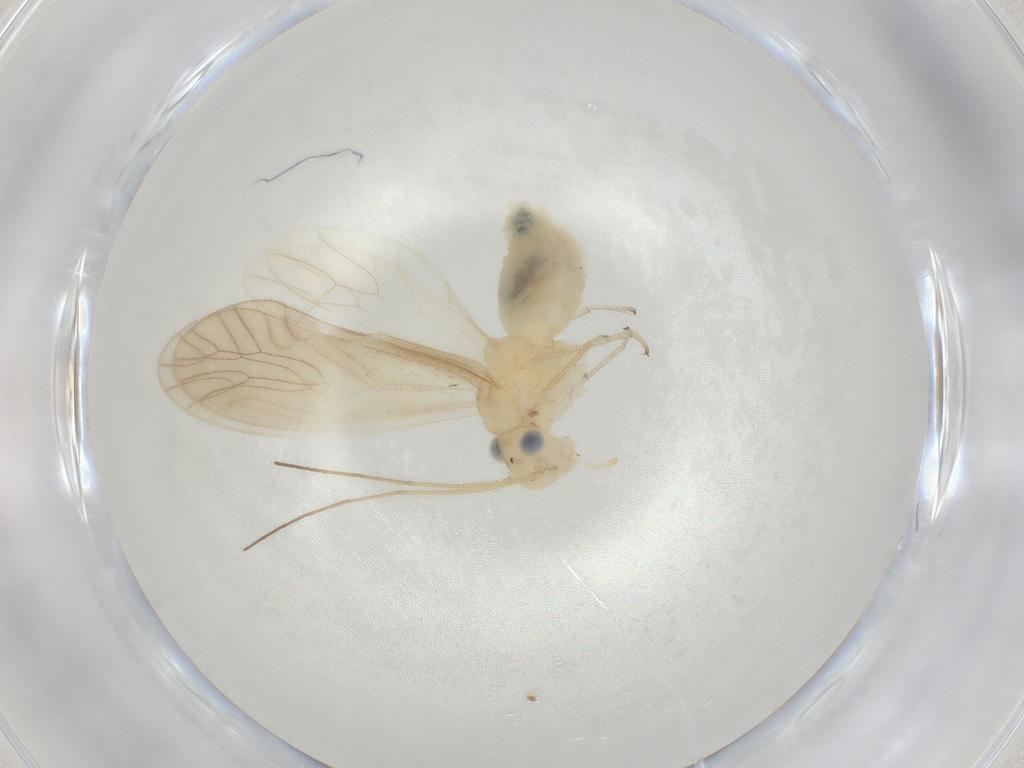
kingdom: Animalia
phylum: Arthropoda
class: Insecta
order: Psocodea
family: Caeciliusidae
